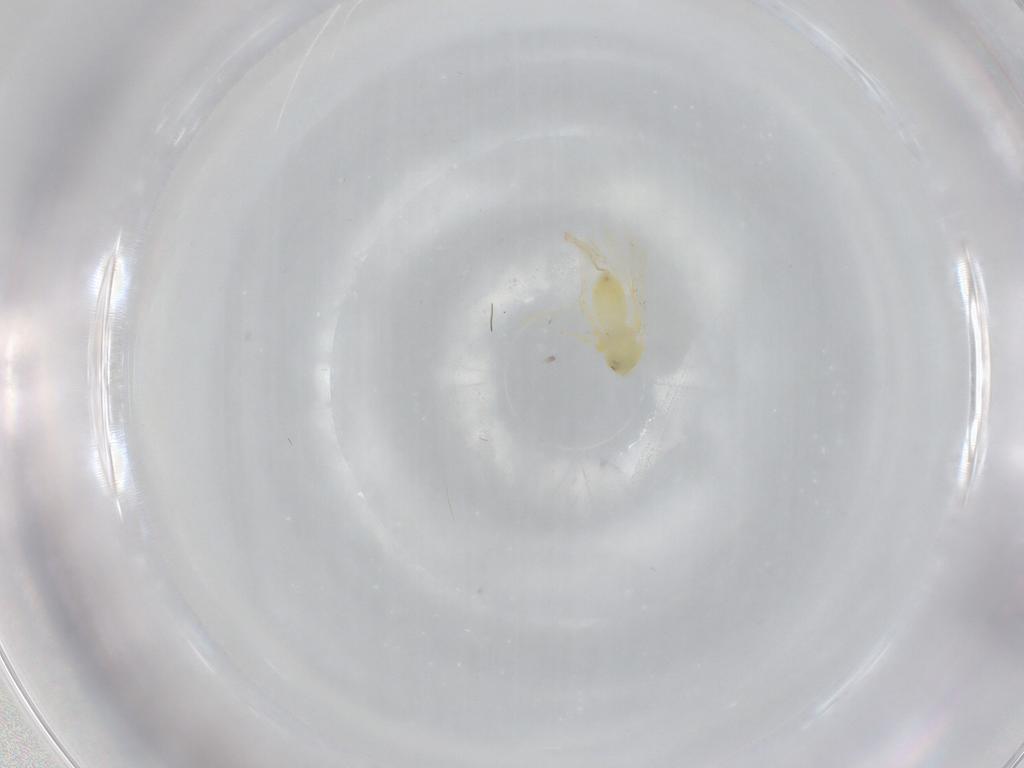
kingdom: Animalia
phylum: Arthropoda
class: Insecta
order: Hemiptera
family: Aleyrodidae
